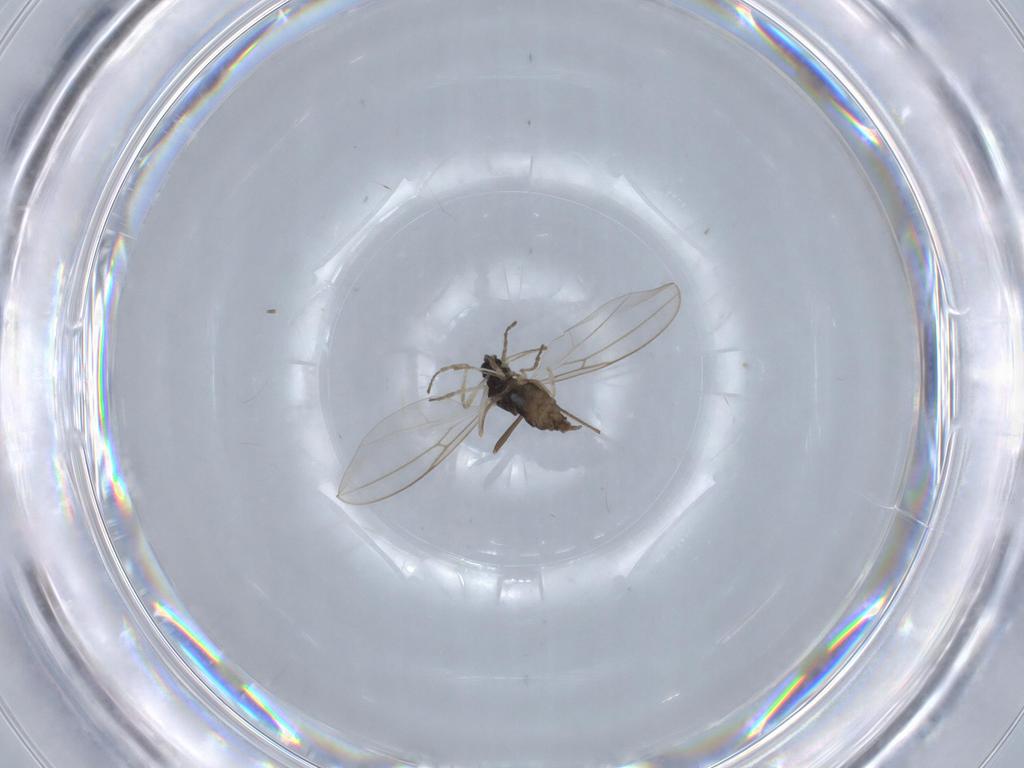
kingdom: Animalia
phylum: Arthropoda
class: Insecta
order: Diptera
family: Cecidomyiidae
